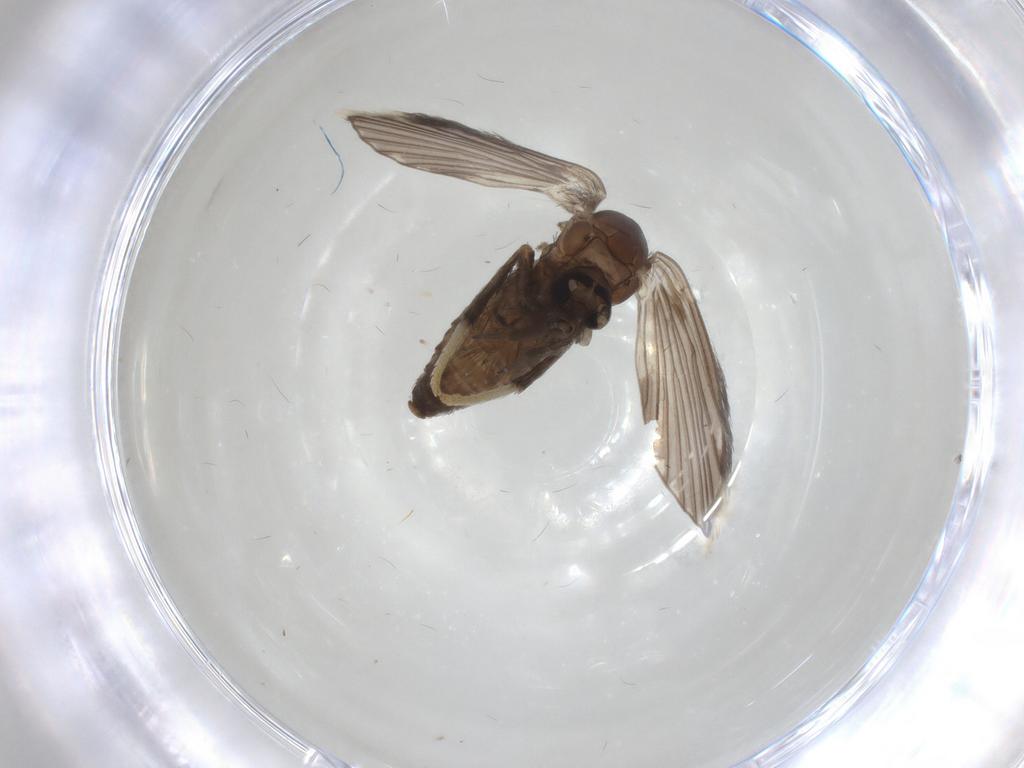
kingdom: Animalia
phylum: Arthropoda
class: Insecta
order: Diptera
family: Psychodidae
